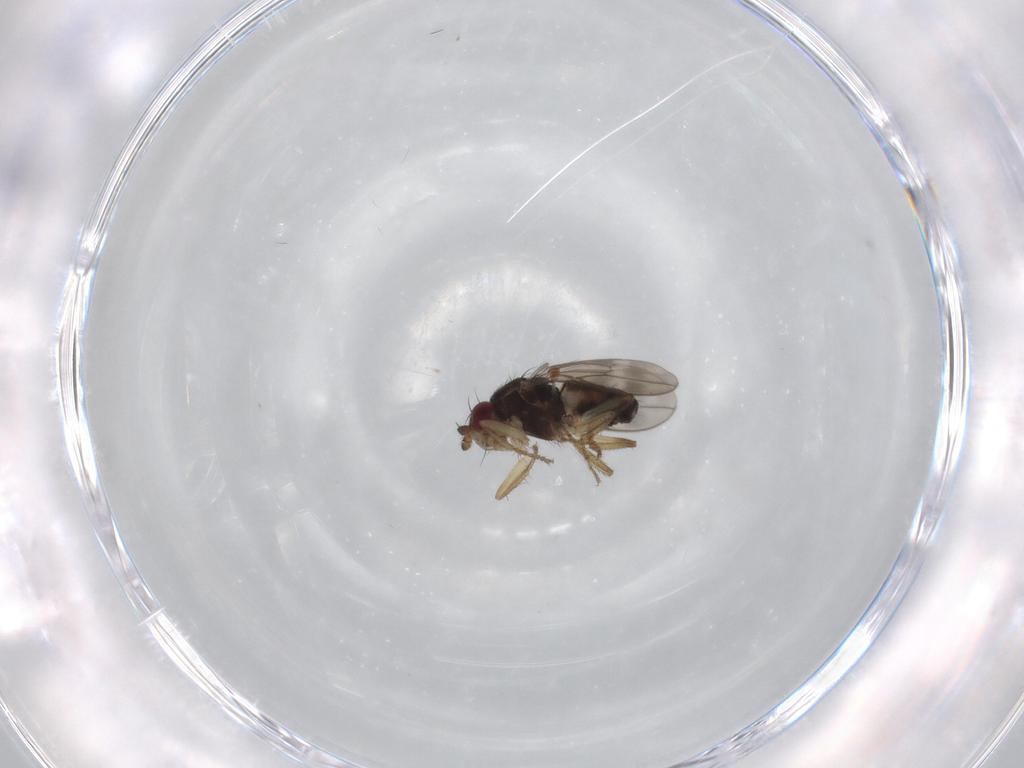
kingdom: Animalia
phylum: Arthropoda
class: Insecta
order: Diptera
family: Sphaeroceridae
